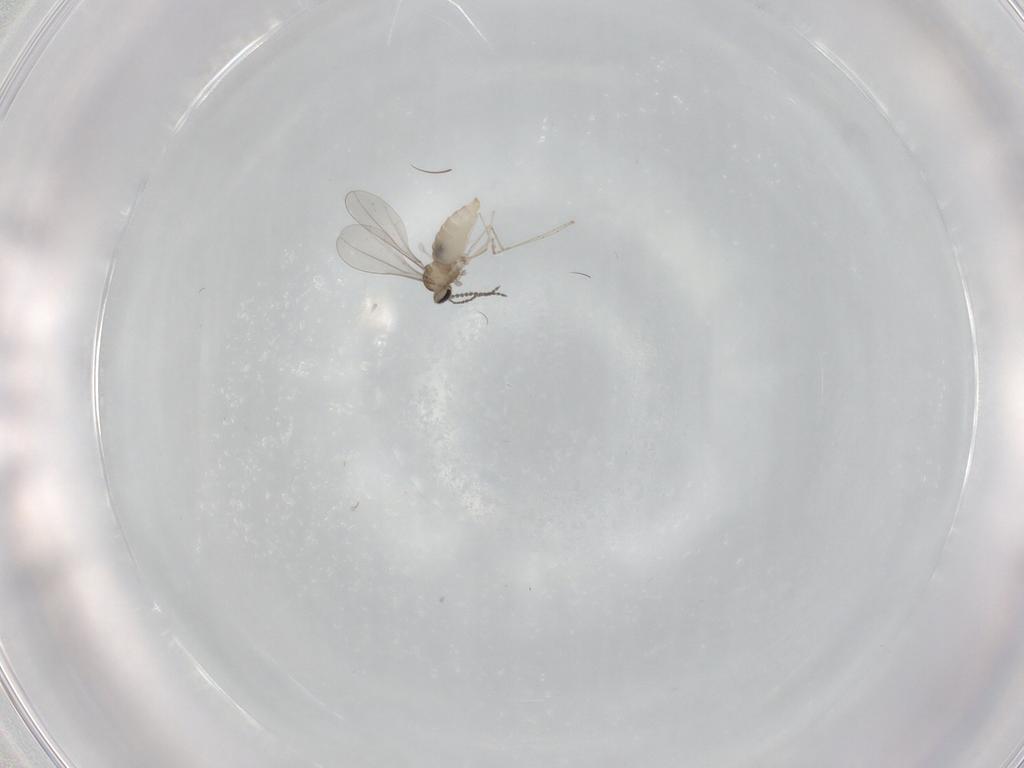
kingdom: Animalia
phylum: Arthropoda
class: Insecta
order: Diptera
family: Cecidomyiidae
